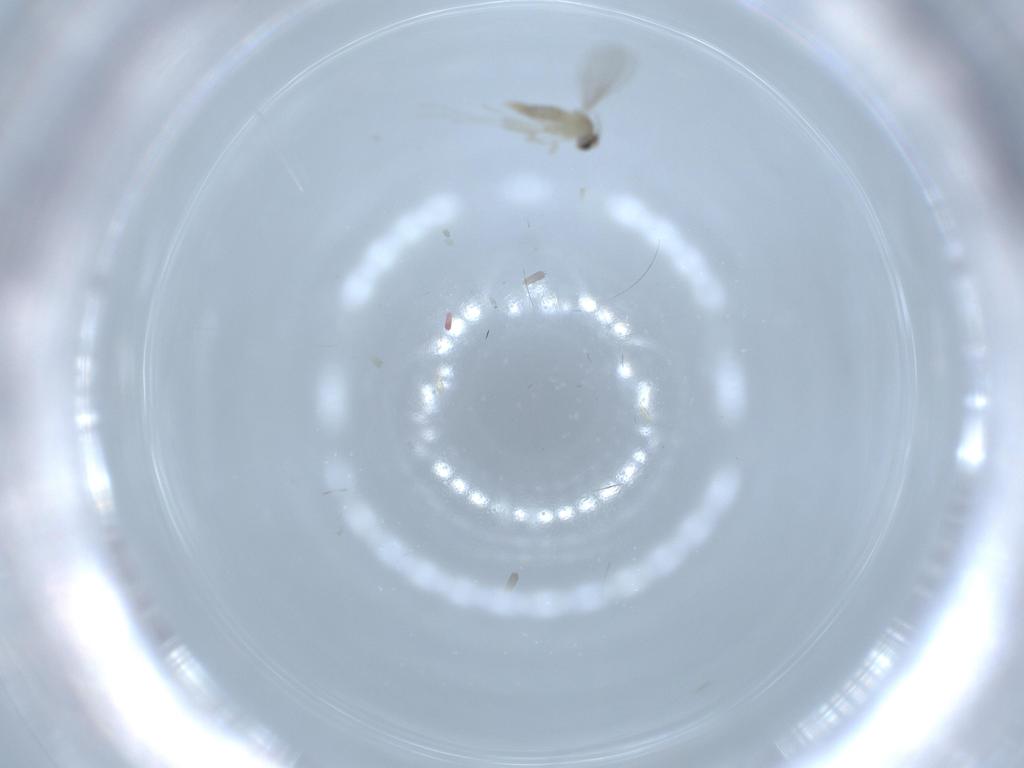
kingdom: Animalia
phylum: Arthropoda
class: Insecta
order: Diptera
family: Cecidomyiidae
